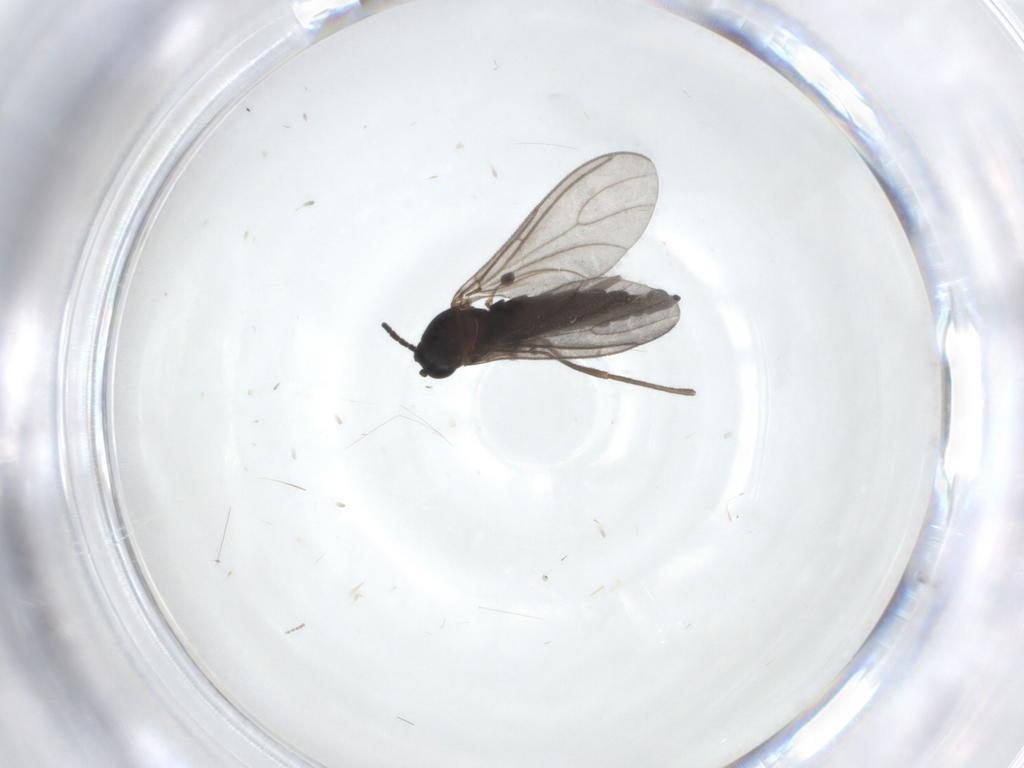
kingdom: Animalia
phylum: Arthropoda
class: Insecta
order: Diptera
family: Sciaridae
